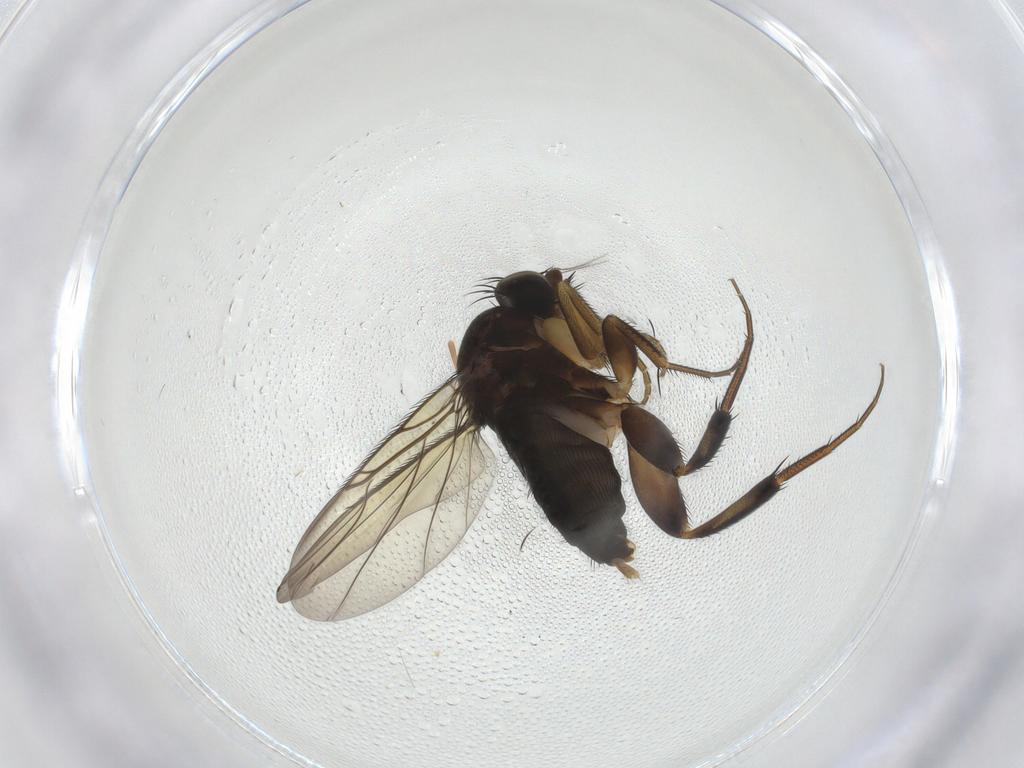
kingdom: Animalia
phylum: Arthropoda
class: Insecta
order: Diptera
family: Phoridae
